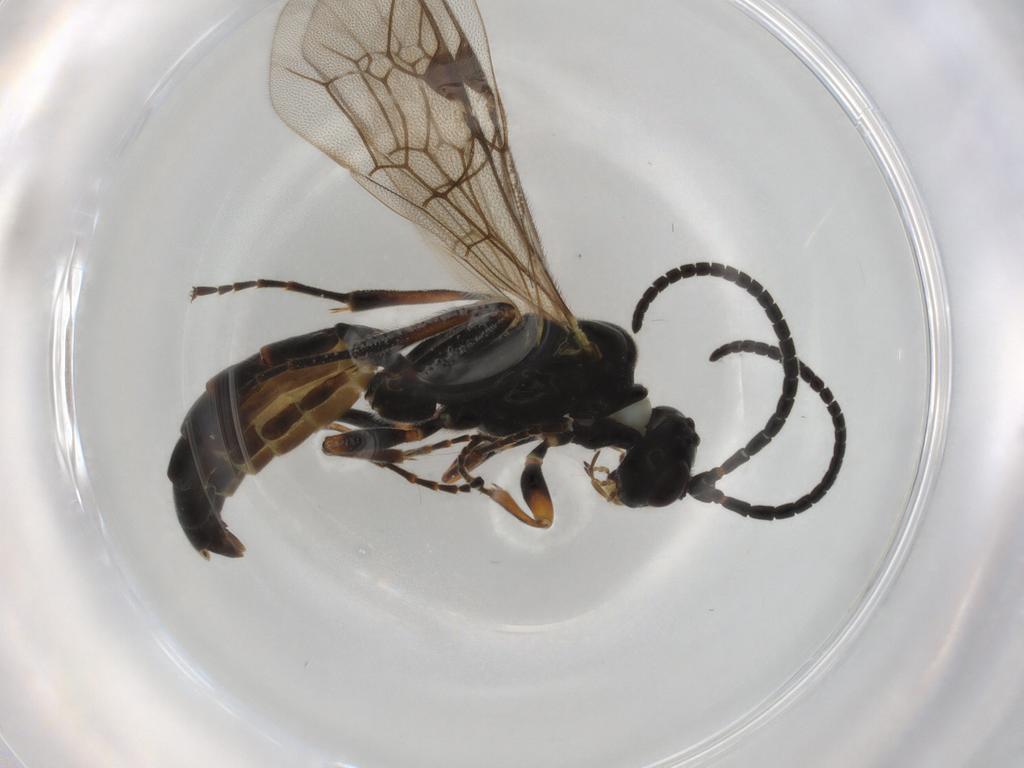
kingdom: Animalia
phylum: Arthropoda
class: Insecta
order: Hymenoptera
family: Ichneumonidae
